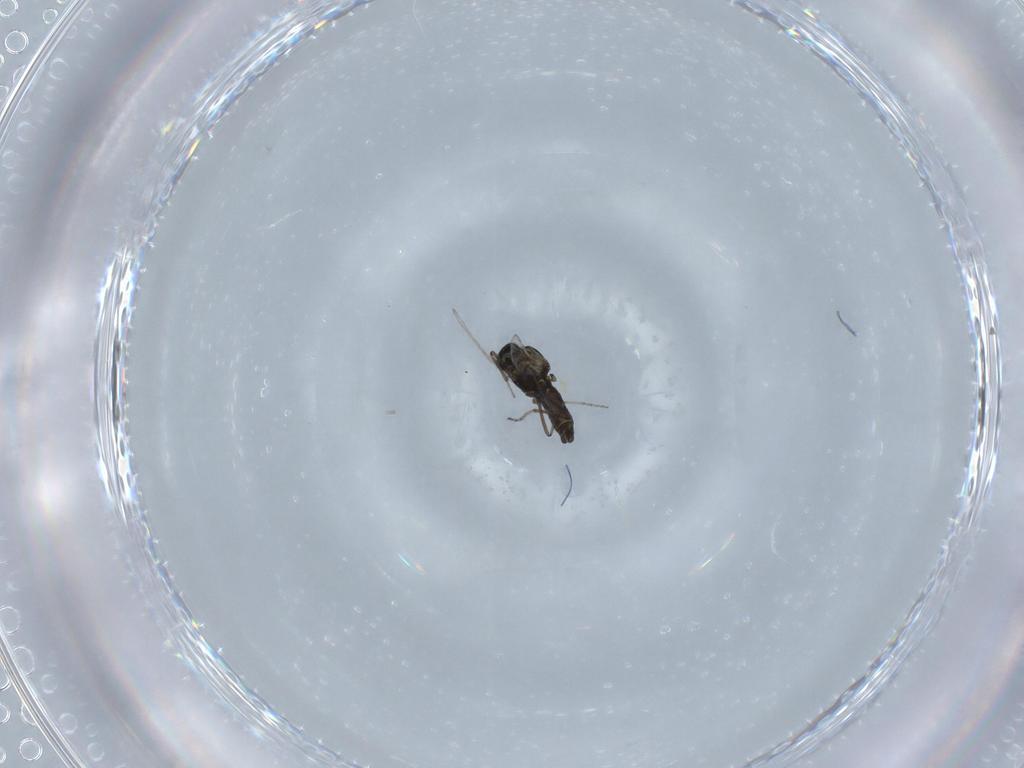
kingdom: Animalia
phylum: Arthropoda
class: Insecta
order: Diptera
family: Ceratopogonidae
